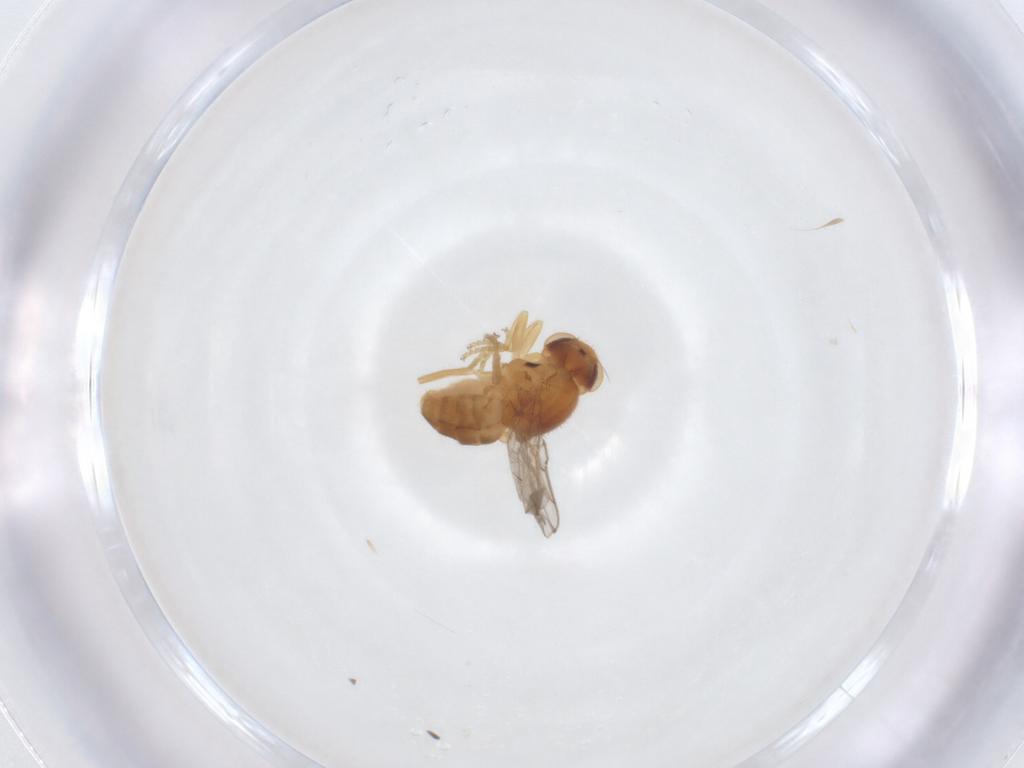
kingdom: Animalia
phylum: Arthropoda
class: Insecta
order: Diptera
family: Chloropidae
